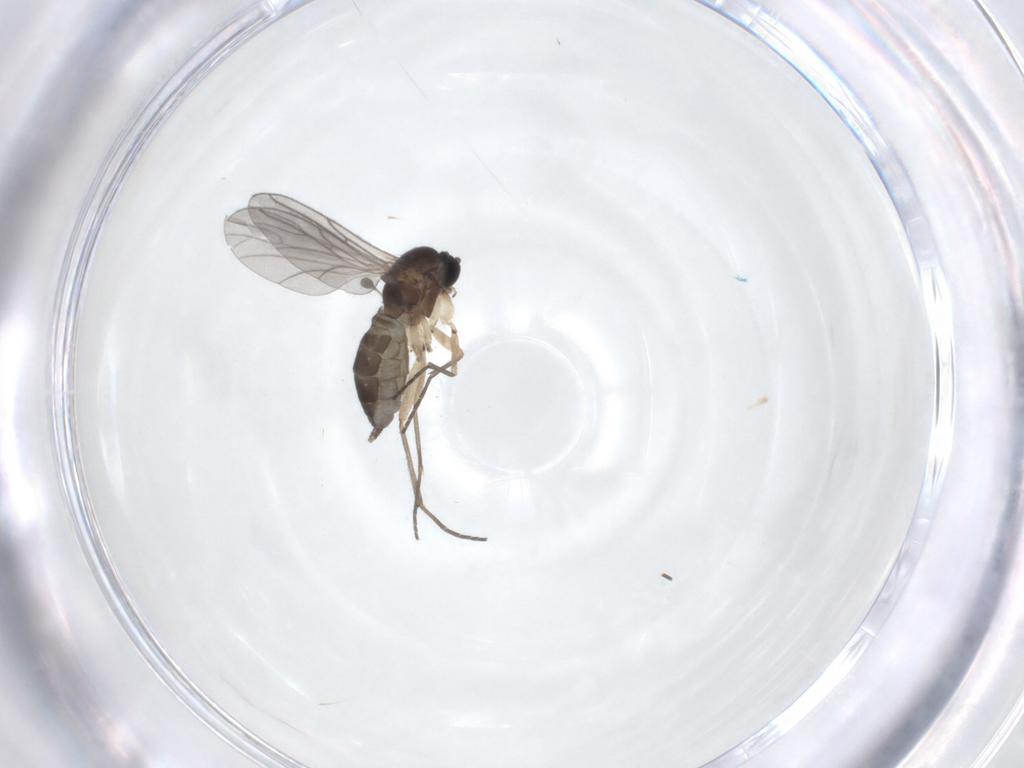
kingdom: Animalia
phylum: Arthropoda
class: Insecta
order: Diptera
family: Sciaridae
